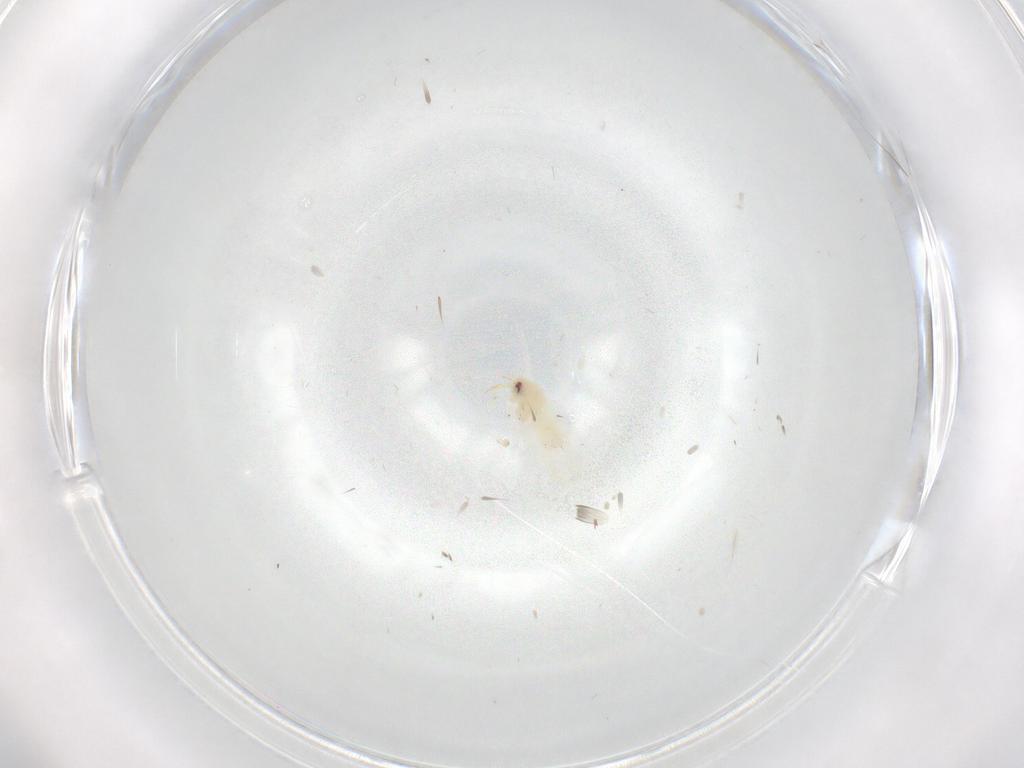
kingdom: Animalia
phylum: Arthropoda
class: Insecta
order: Hemiptera
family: Aleyrodidae
